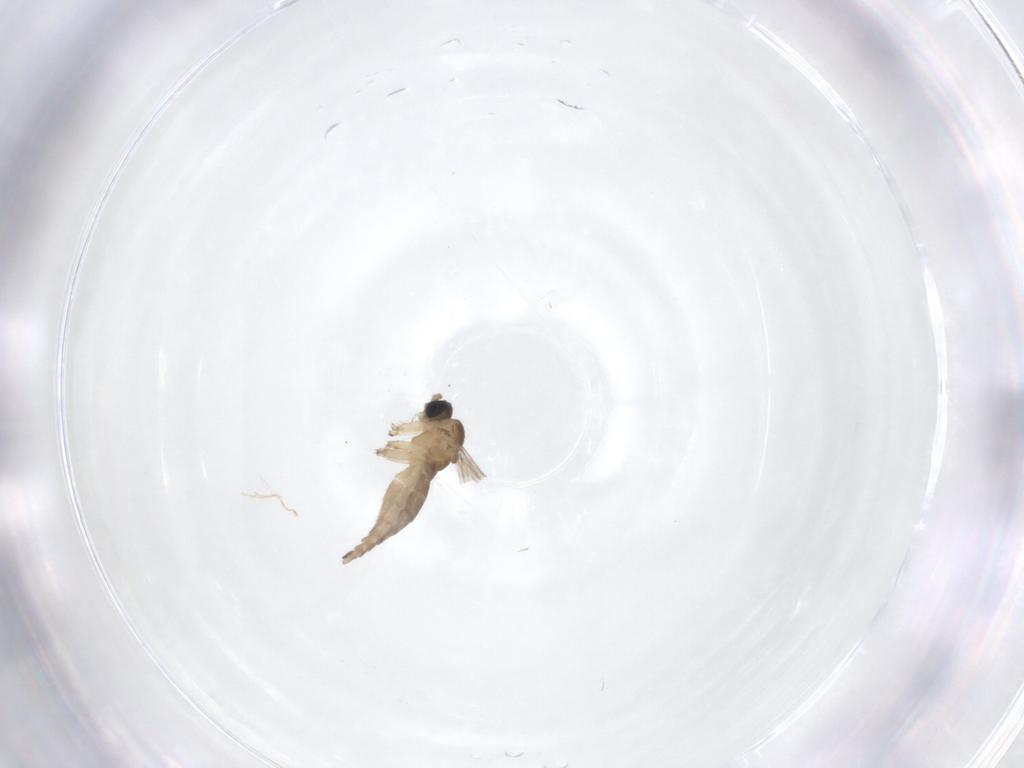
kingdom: Animalia
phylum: Arthropoda
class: Insecta
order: Diptera
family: Sciaridae
